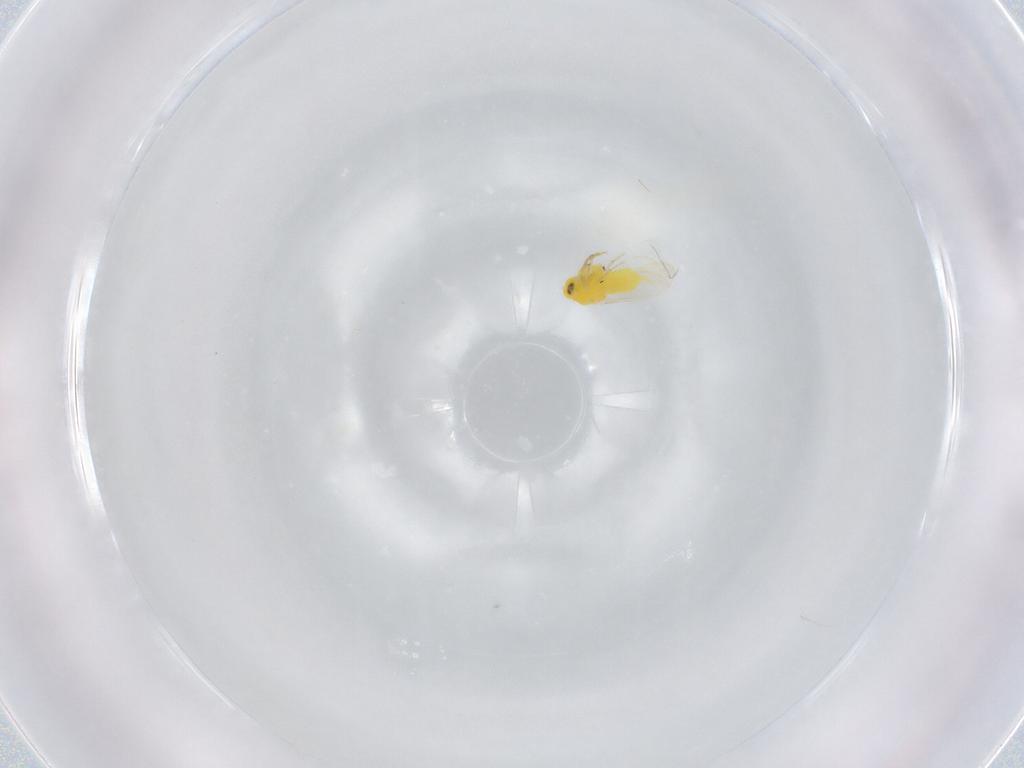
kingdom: Animalia
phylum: Arthropoda
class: Insecta
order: Hemiptera
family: Aleyrodidae
